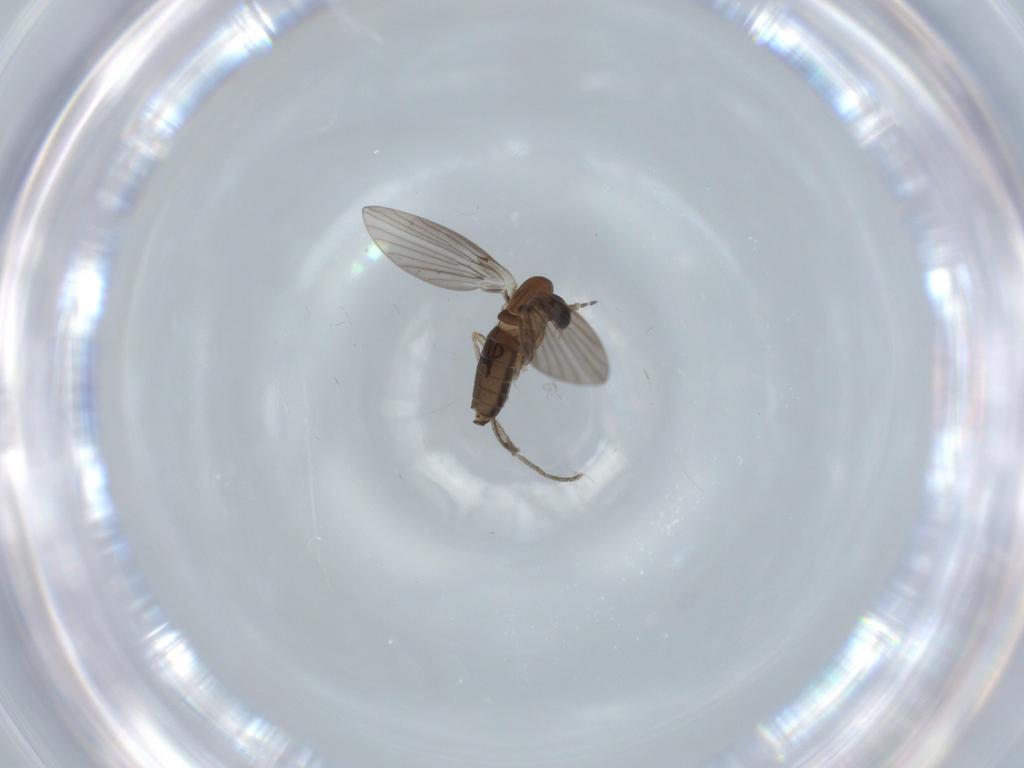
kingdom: Animalia
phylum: Arthropoda
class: Insecta
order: Diptera
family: Psychodidae
